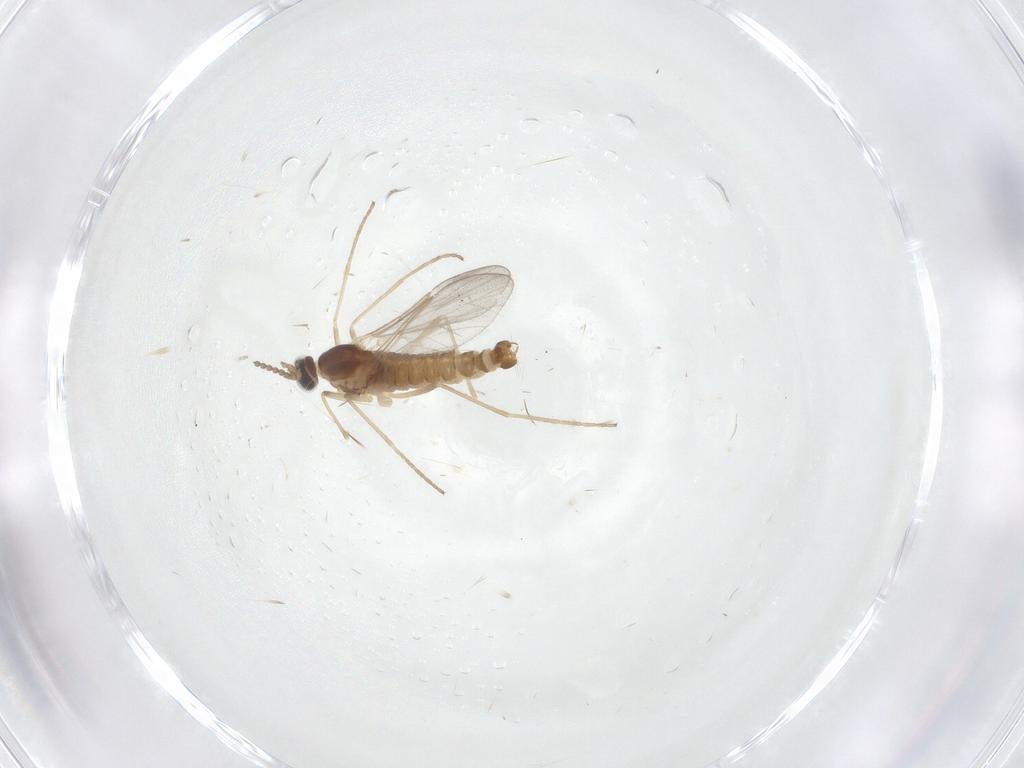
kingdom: Animalia
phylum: Arthropoda
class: Insecta
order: Diptera
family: Cecidomyiidae
